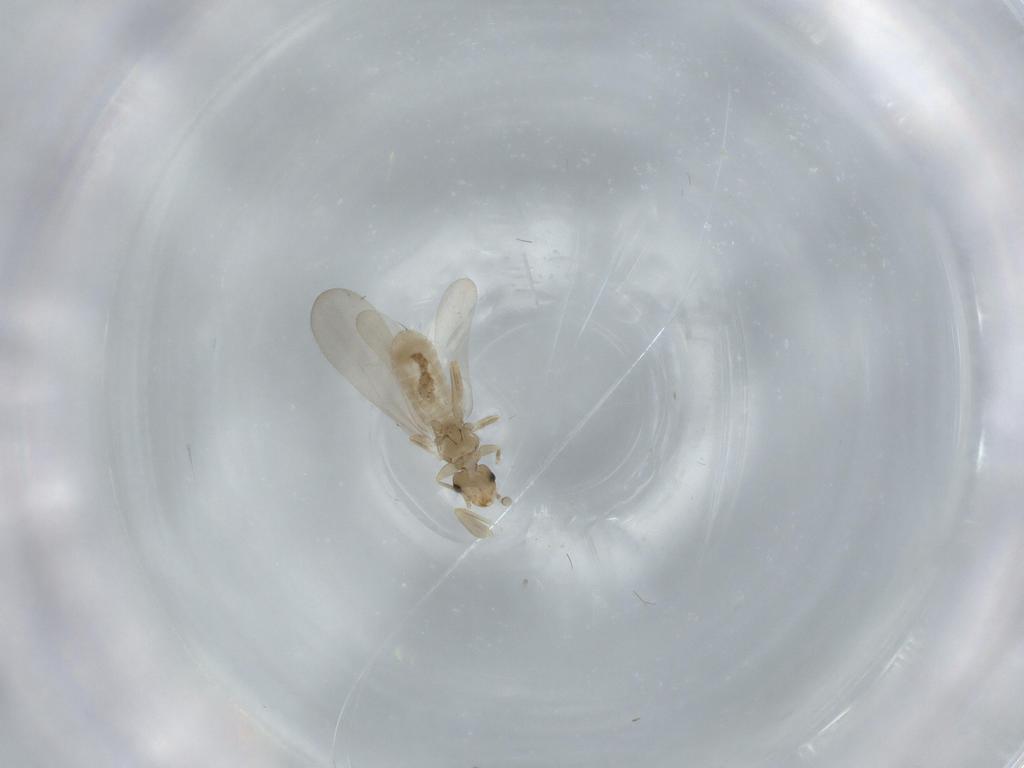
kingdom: Animalia
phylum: Arthropoda
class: Insecta
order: Psocodea
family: Liposcelididae
